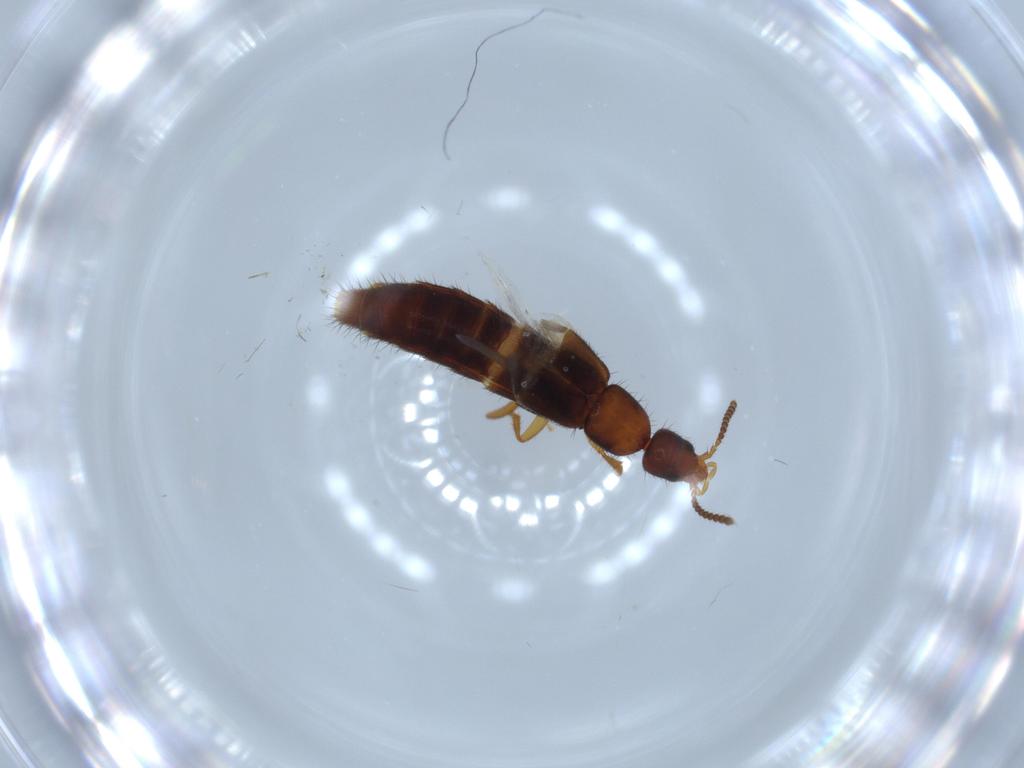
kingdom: Animalia
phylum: Arthropoda
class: Insecta
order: Coleoptera
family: Staphylinidae
